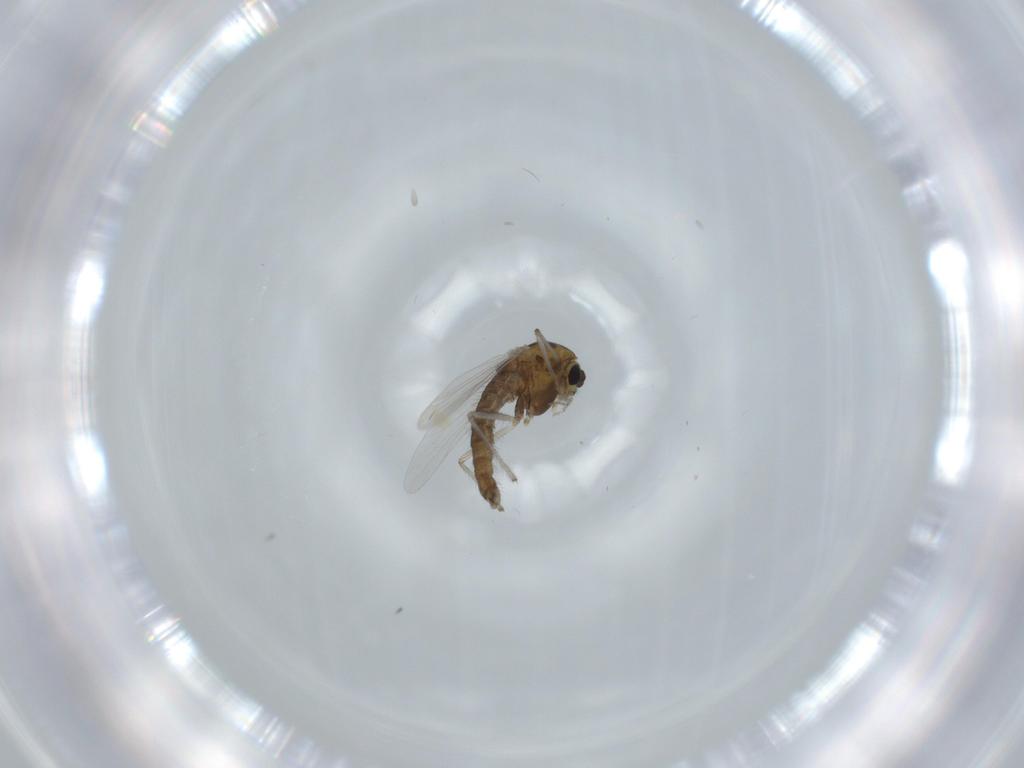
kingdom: Animalia
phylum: Arthropoda
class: Insecta
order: Diptera
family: Chironomidae
